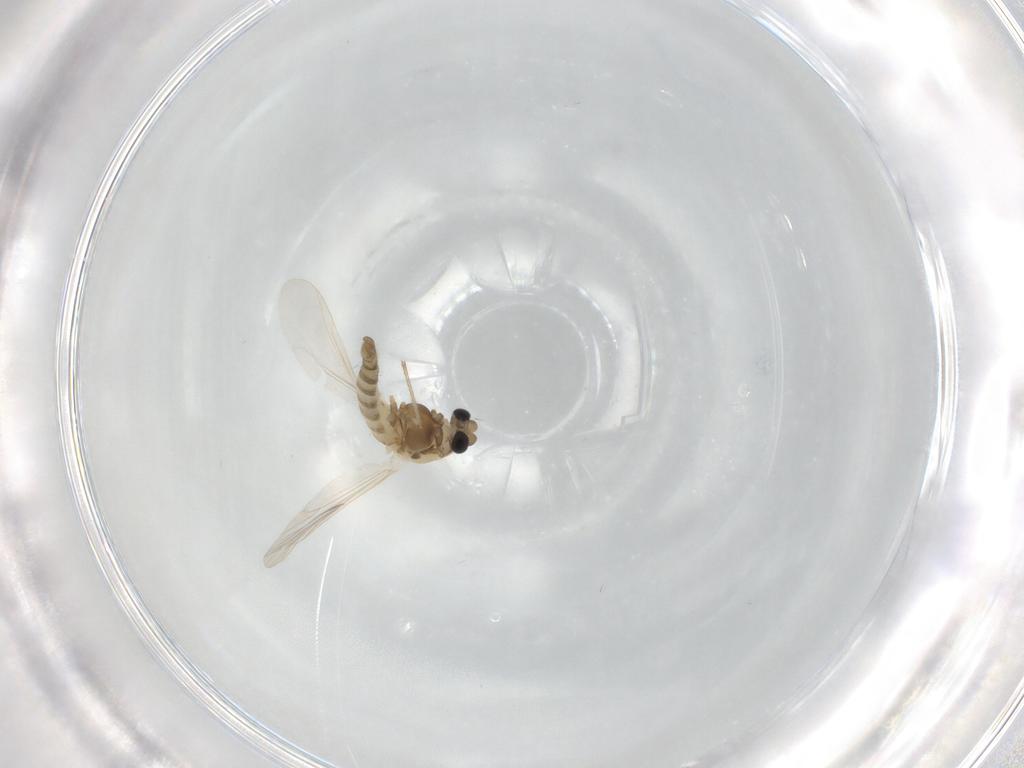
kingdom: Animalia
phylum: Arthropoda
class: Insecta
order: Diptera
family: Chironomidae
